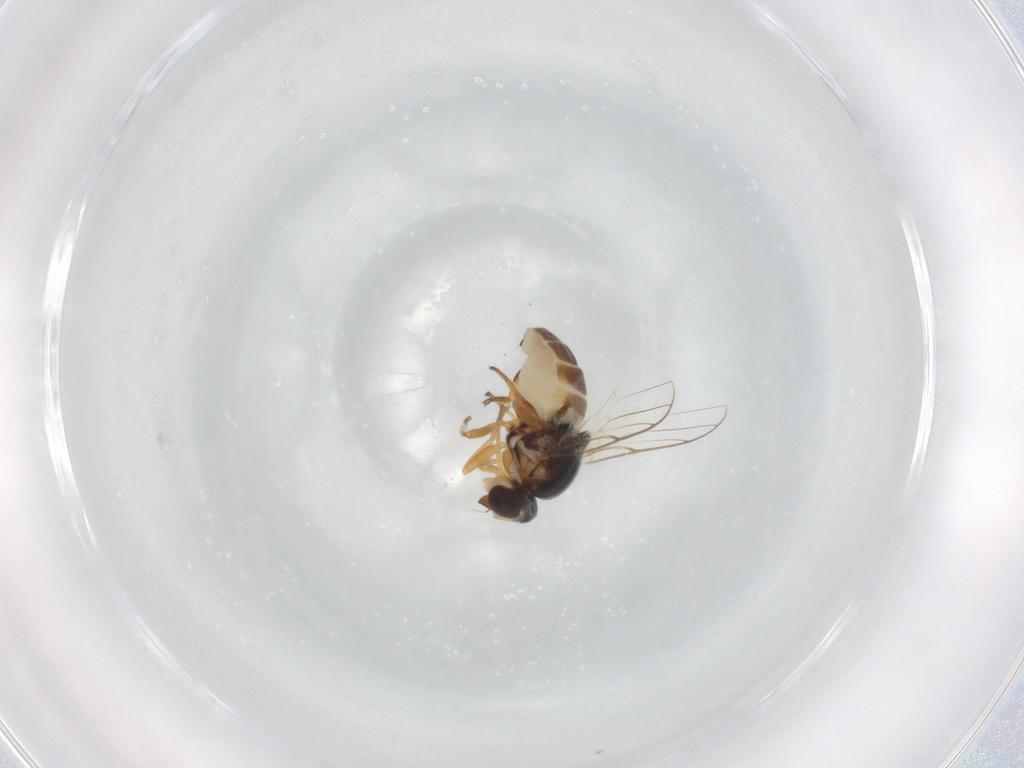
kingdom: Animalia
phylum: Arthropoda
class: Insecta
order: Diptera
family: Chloropidae
